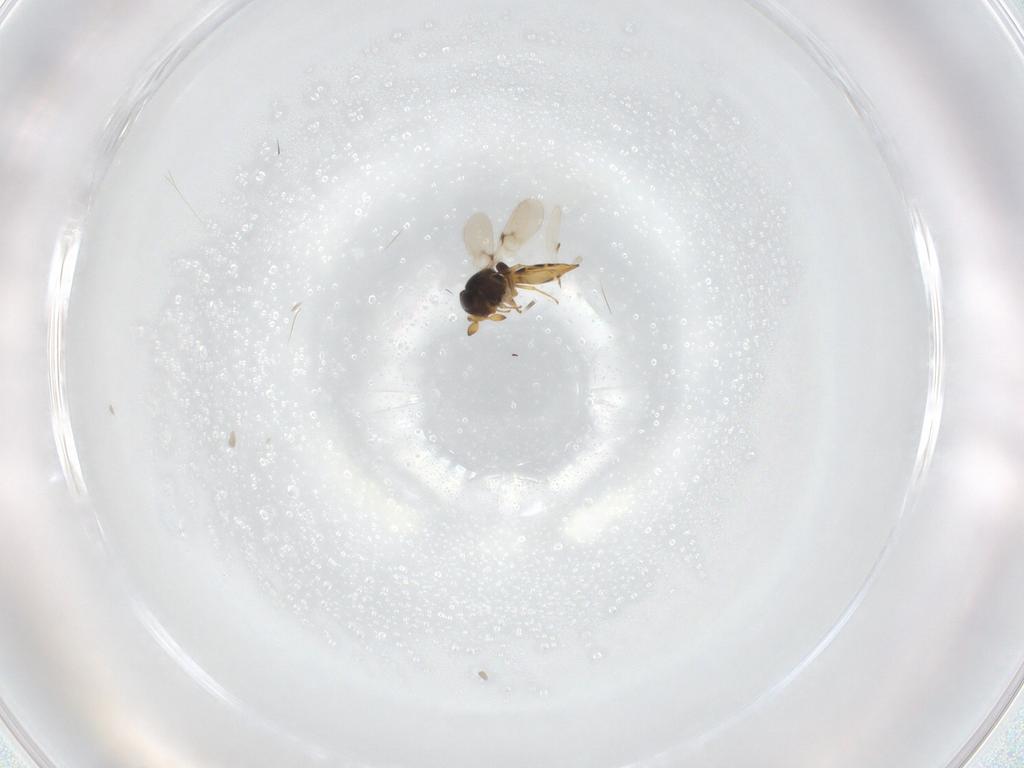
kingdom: Animalia
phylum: Arthropoda
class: Insecta
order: Hymenoptera
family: Scelionidae
